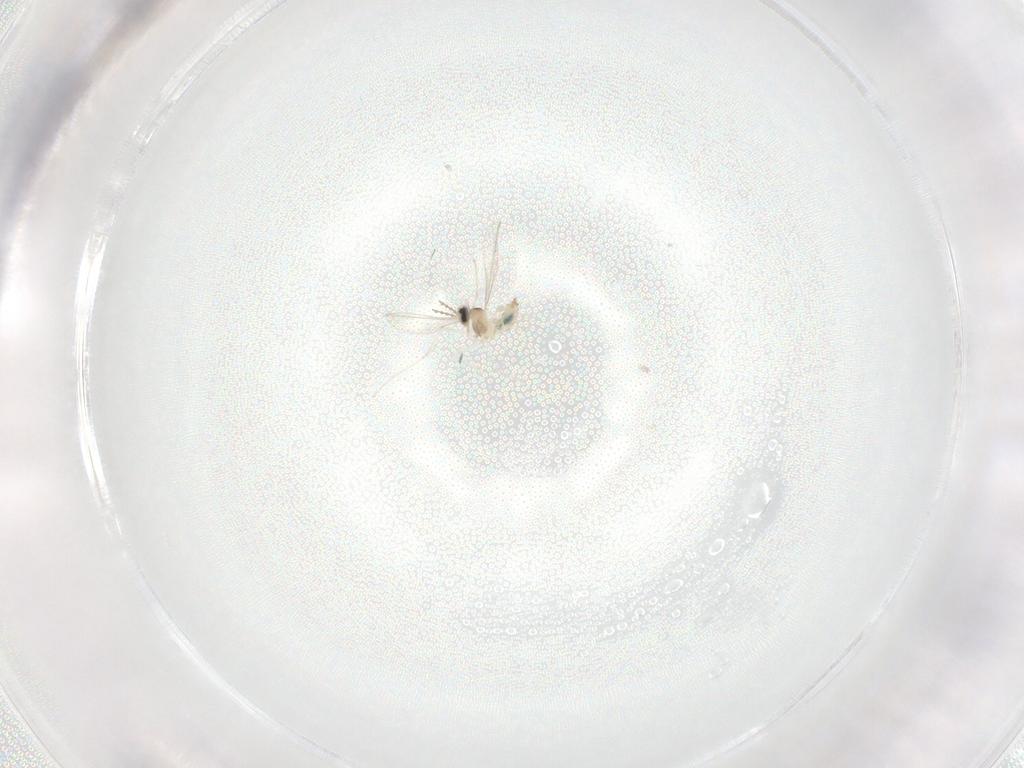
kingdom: Animalia
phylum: Arthropoda
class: Insecta
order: Diptera
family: Cecidomyiidae
